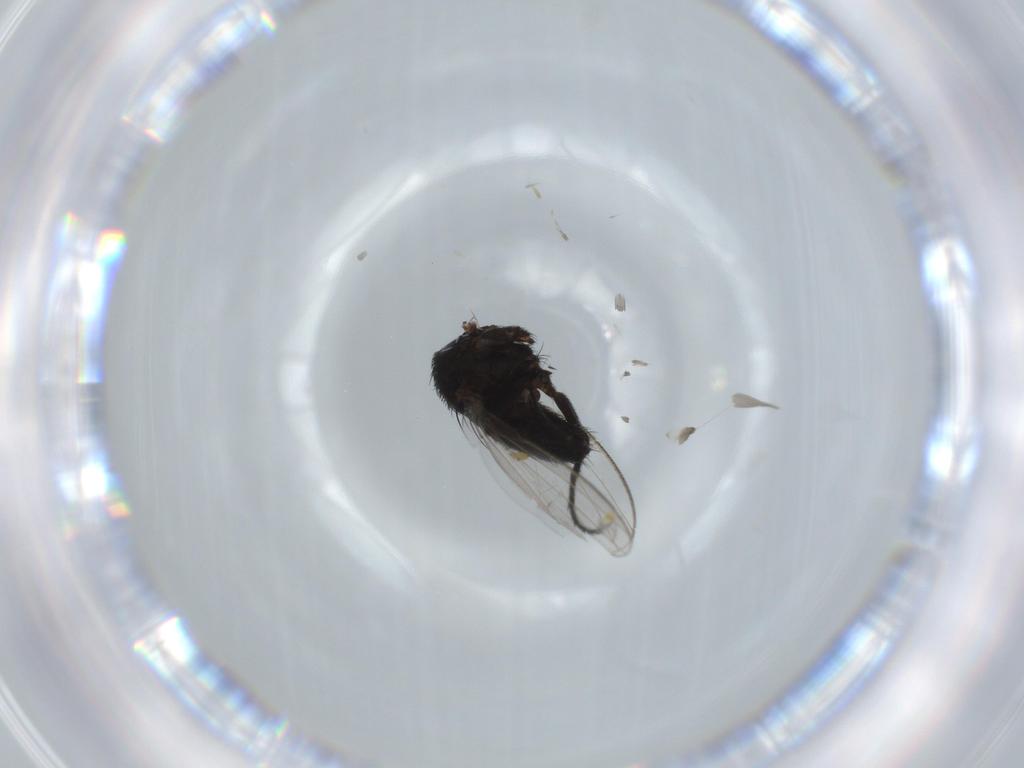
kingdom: Animalia
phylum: Arthropoda
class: Insecta
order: Diptera
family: Milichiidae
